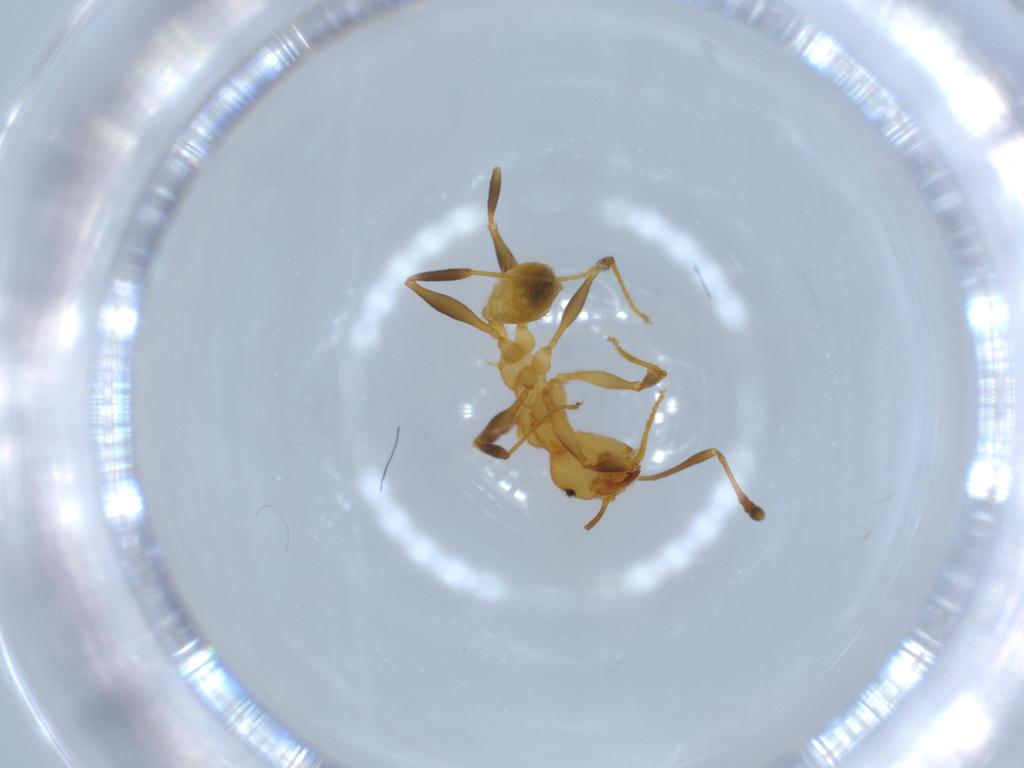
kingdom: Animalia
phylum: Arthropoda
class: Insecta
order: Hymenoptera
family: Formicidae
